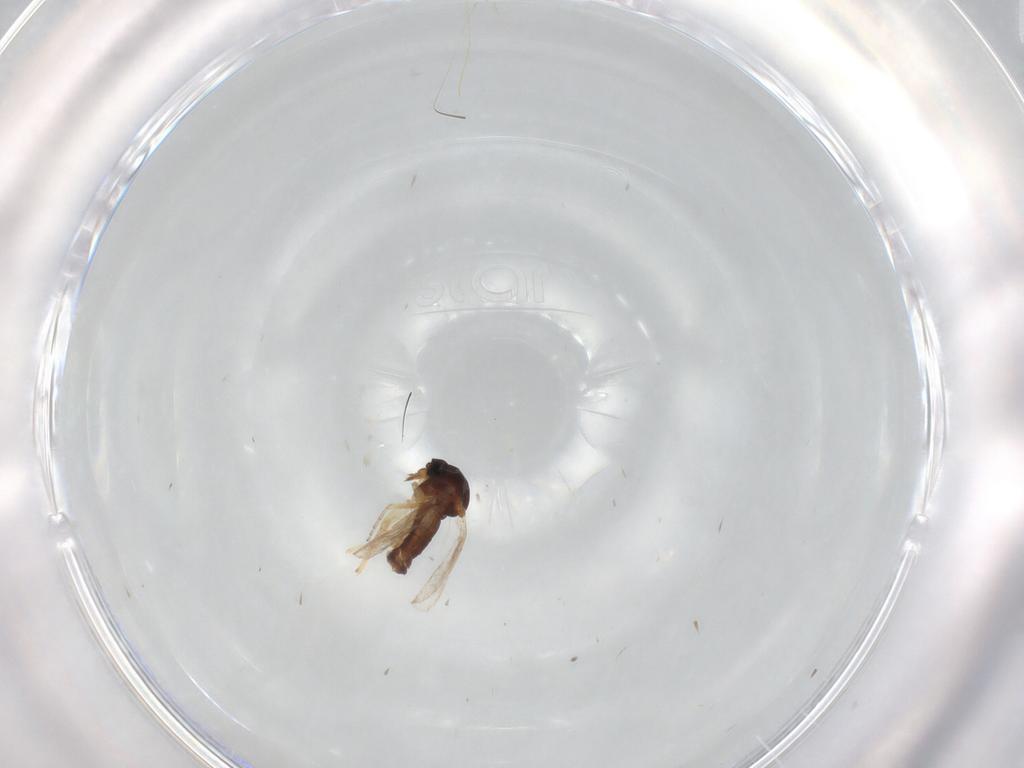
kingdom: Animalia
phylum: Arthropoda
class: Insecta
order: Diptera
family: Ceratopogonidae
